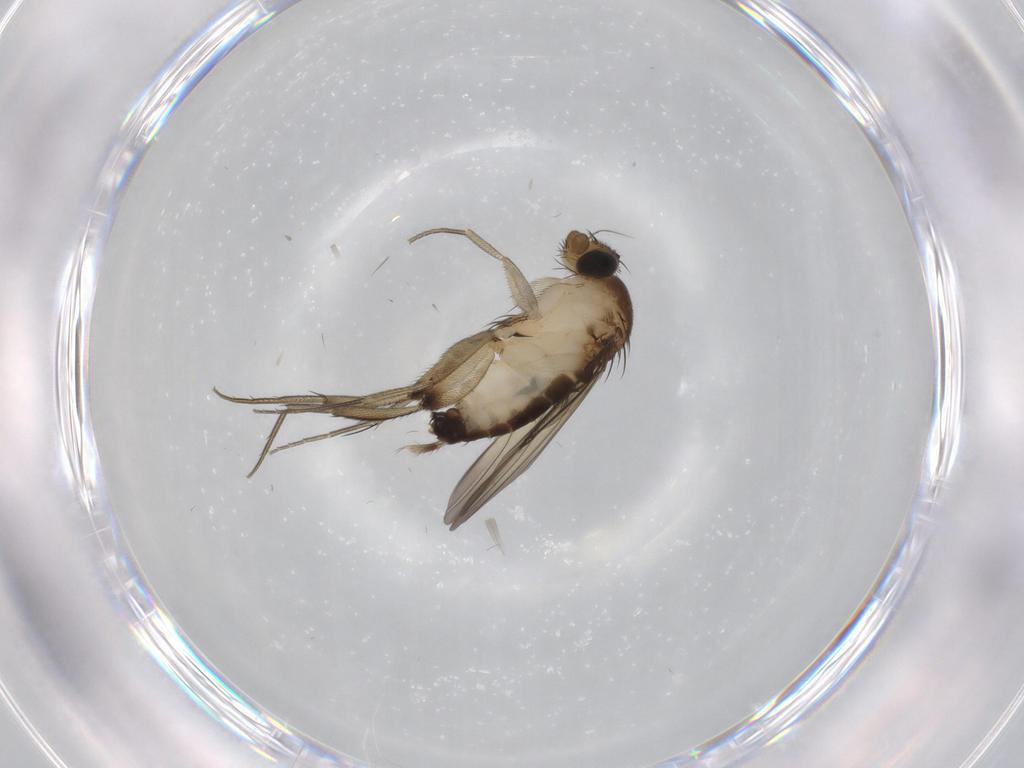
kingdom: Animalia
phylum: Arthropoda
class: Insecta
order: Diptera
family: Phoridae
